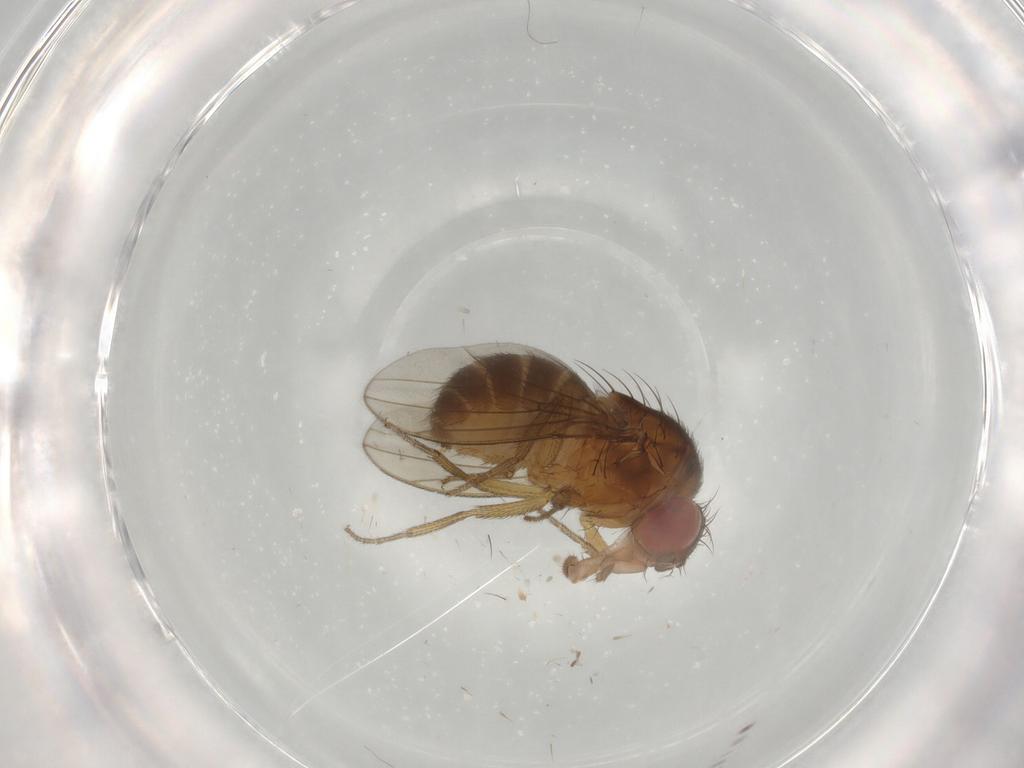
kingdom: Animalia
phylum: Arthropoda
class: Insecta
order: Diptera
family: Drosophilidae
